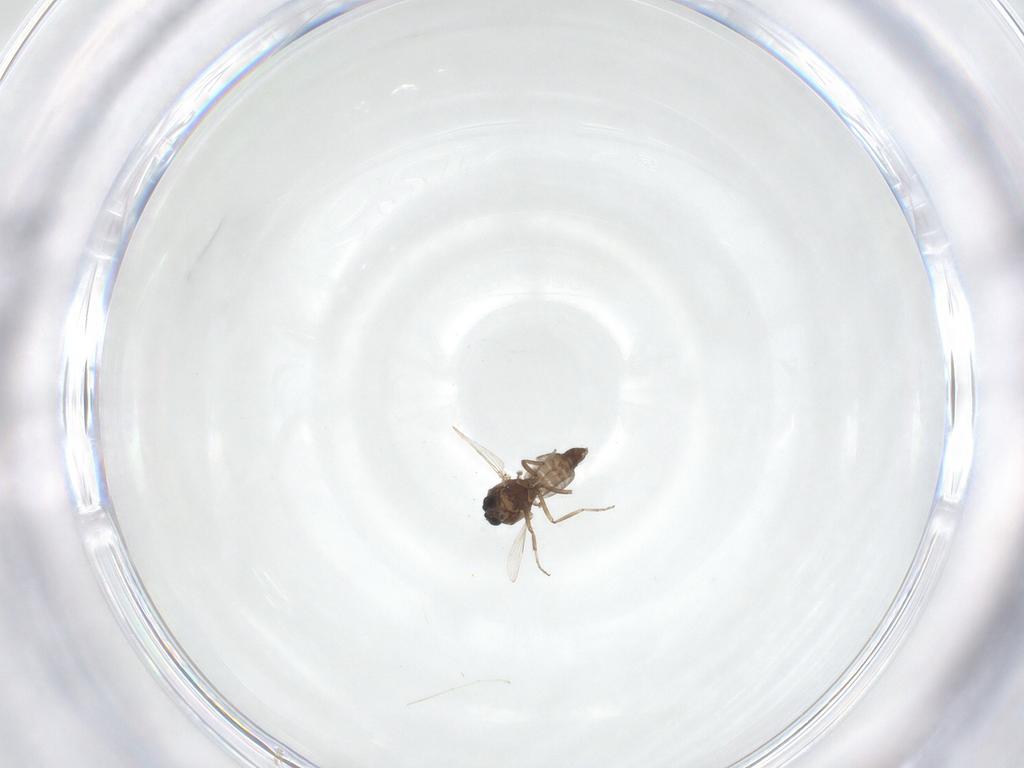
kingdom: Animalia
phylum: Arthropoda
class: Insecta
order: Diptera
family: Ceratopogonidae
